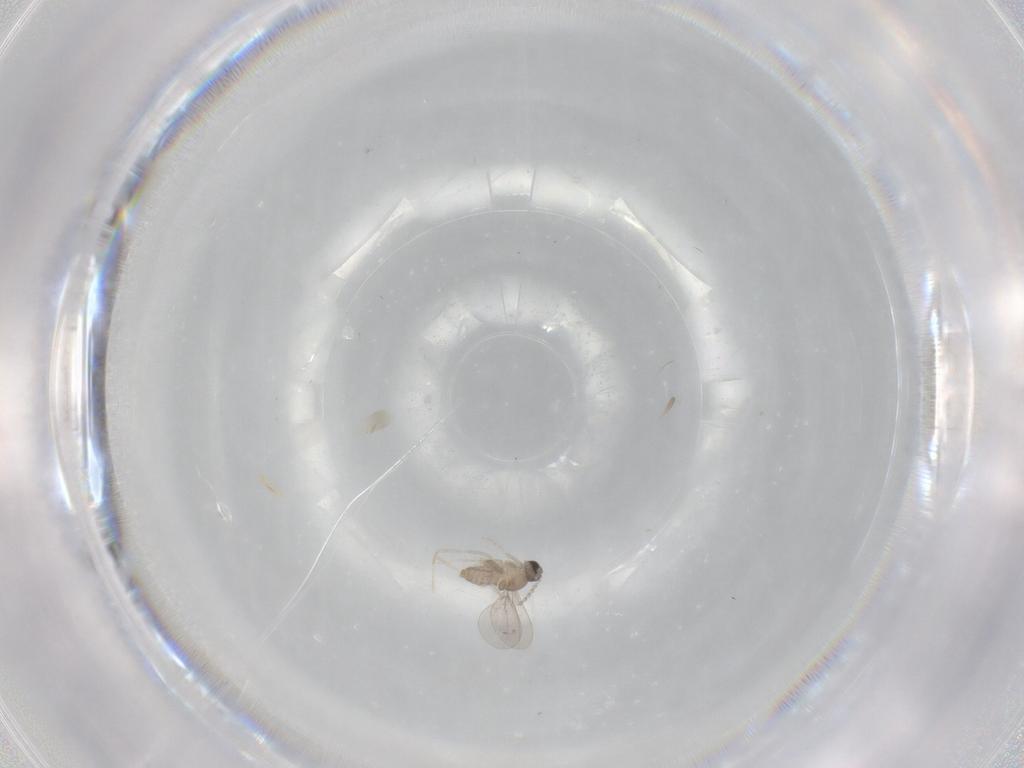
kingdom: Animalia
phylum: Arthropoda
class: Insecta
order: Diptera
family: Cecidomyiidae
